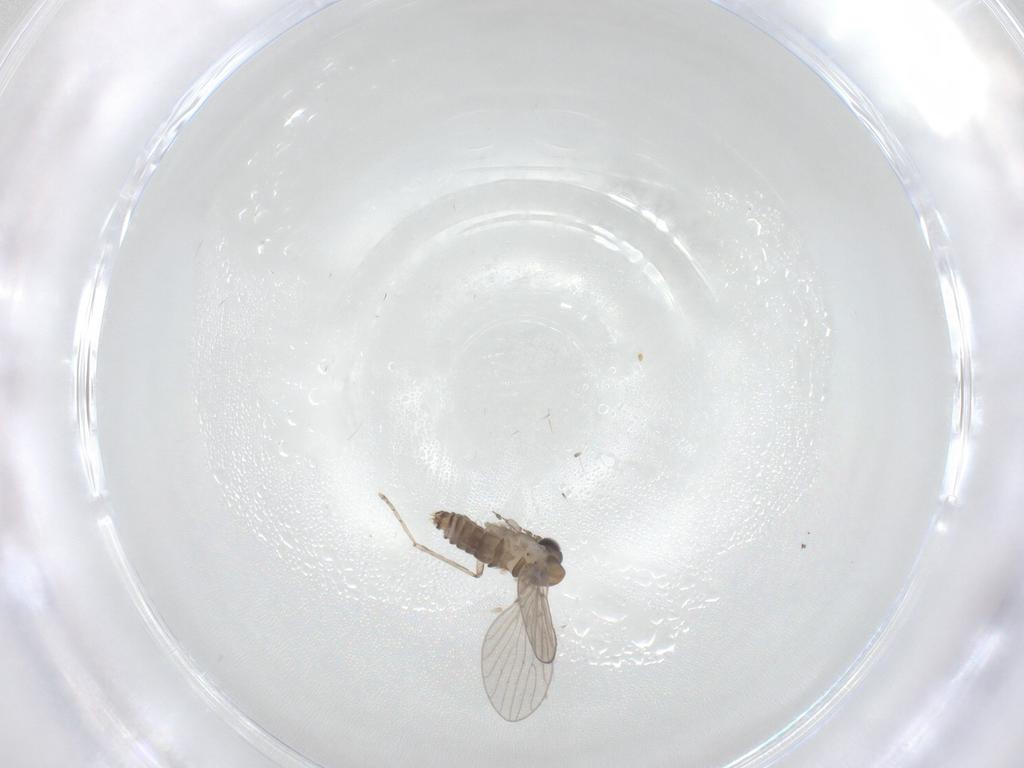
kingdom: Animalia
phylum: Arthropoda
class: Insecta
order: Diptera
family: Psychodidae
